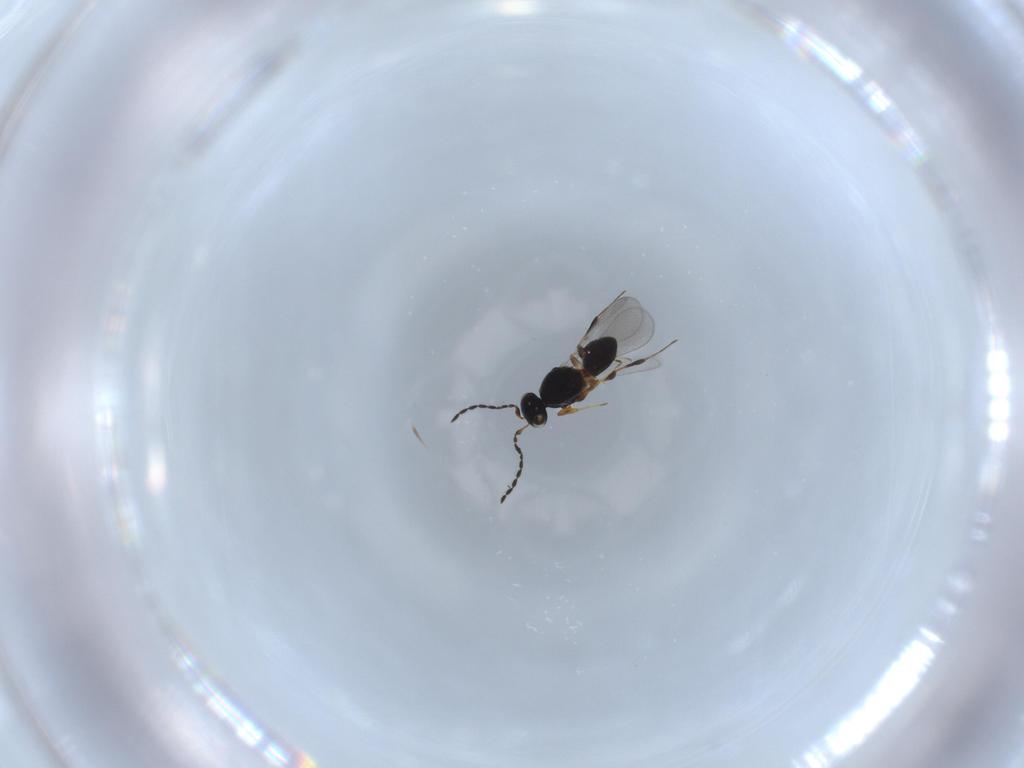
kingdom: Animalia
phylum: Arthropoda
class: Insecta
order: Hymenoptera
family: Platygastridae
